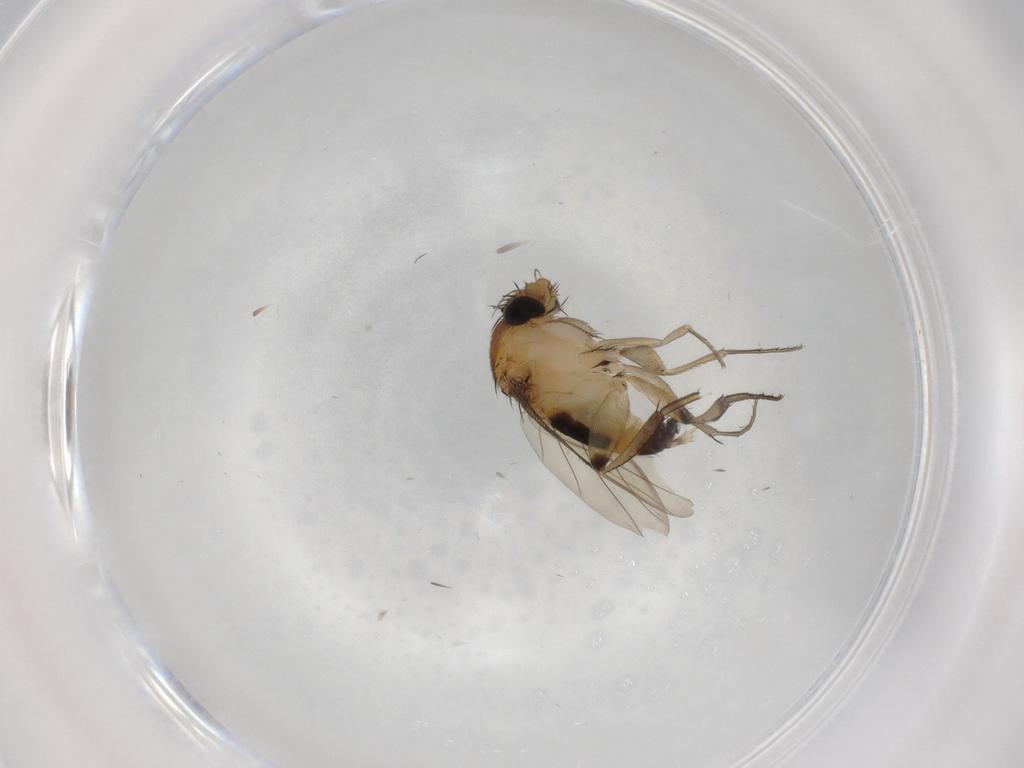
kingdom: Animalia
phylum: Arthropoda
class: Insecta
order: Diptera
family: Phoridae
